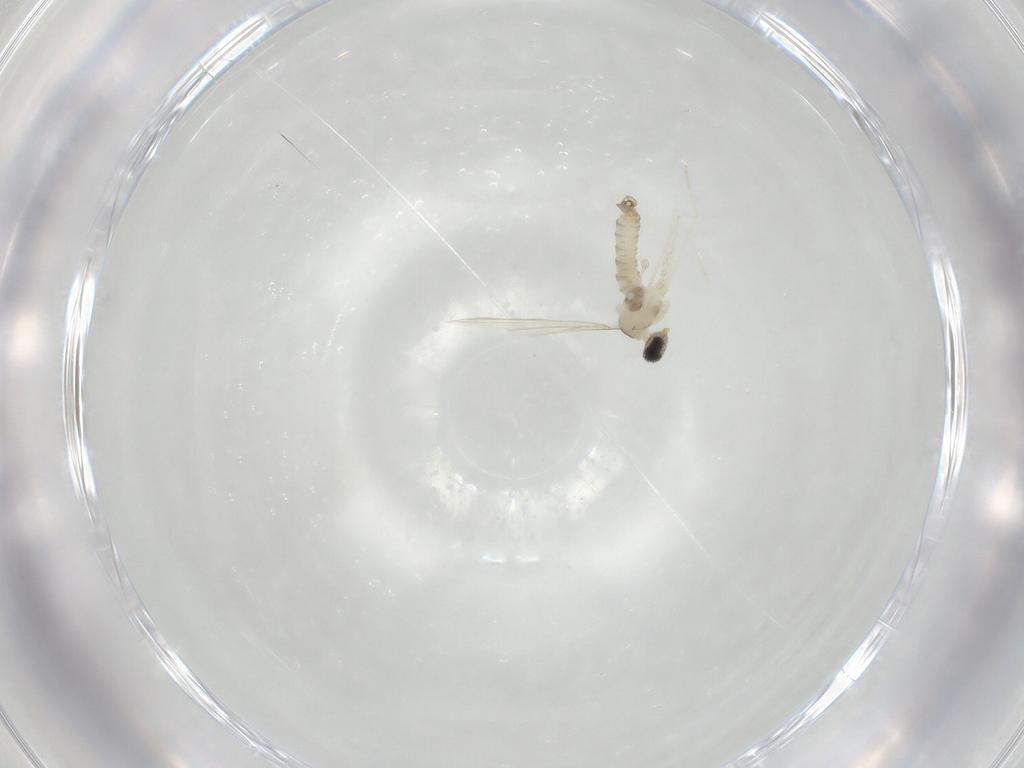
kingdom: Animalia
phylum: Arthropoda
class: Insecta
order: Diptera
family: Cecidomyiidae
